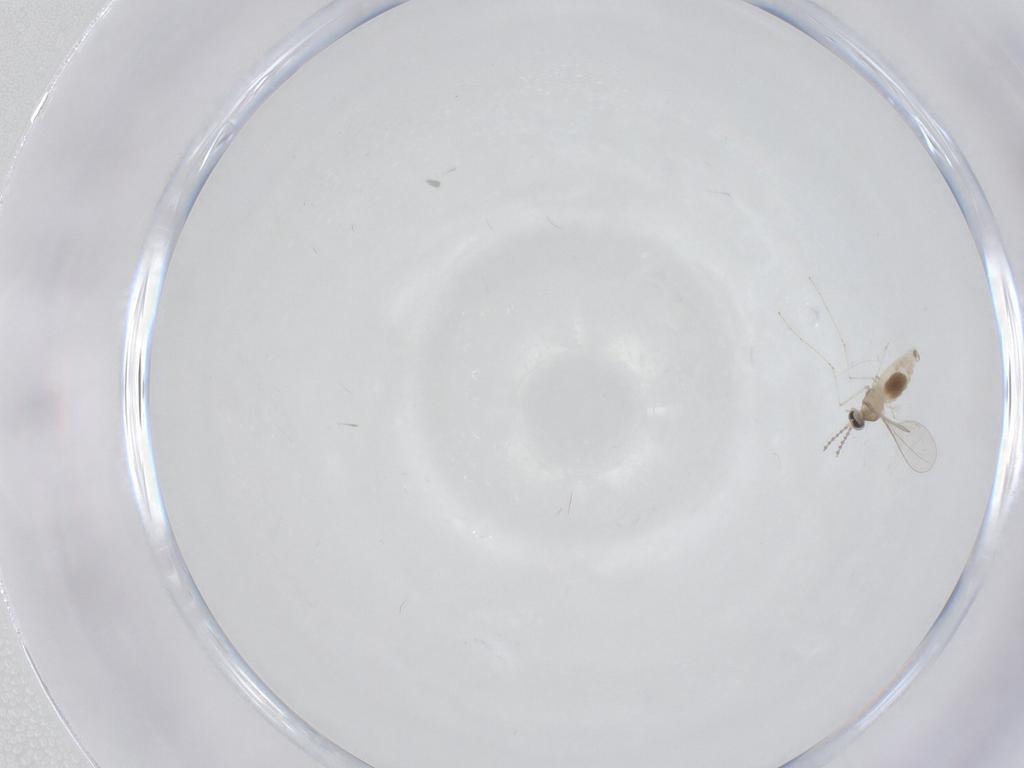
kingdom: Animalia
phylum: Arthropoda
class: Insecta
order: Diptera
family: Cecidomyiidae
